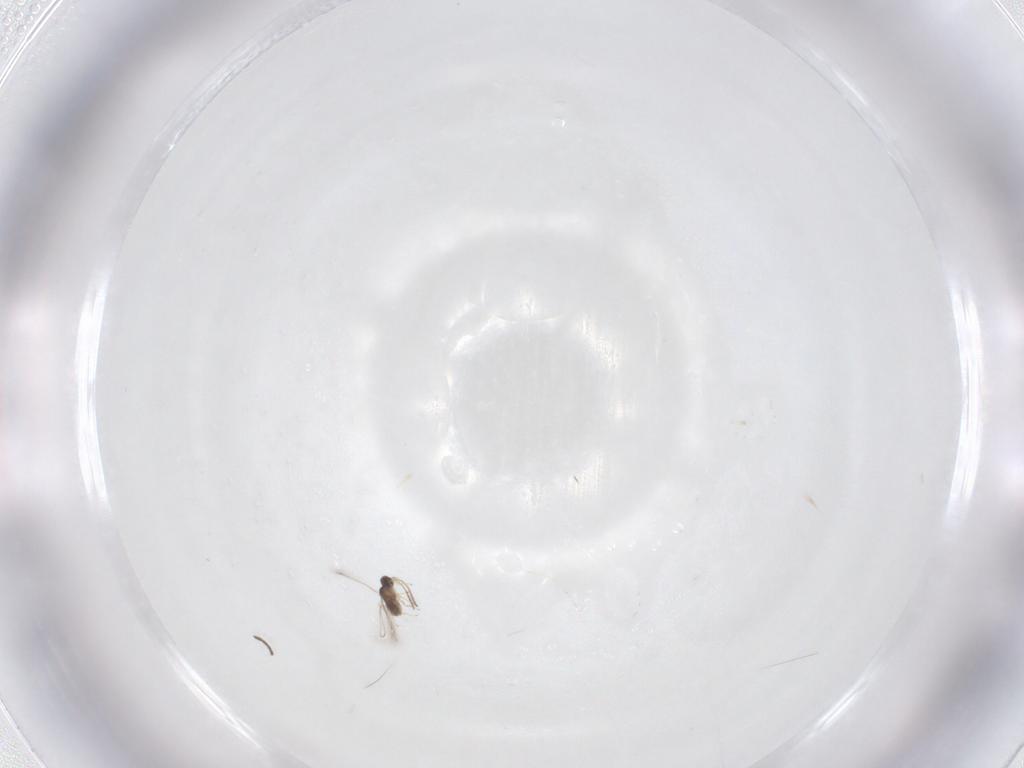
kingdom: Animalia
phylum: Arthropoda
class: Insecta
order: Hymenoptera
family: Mymaridae
